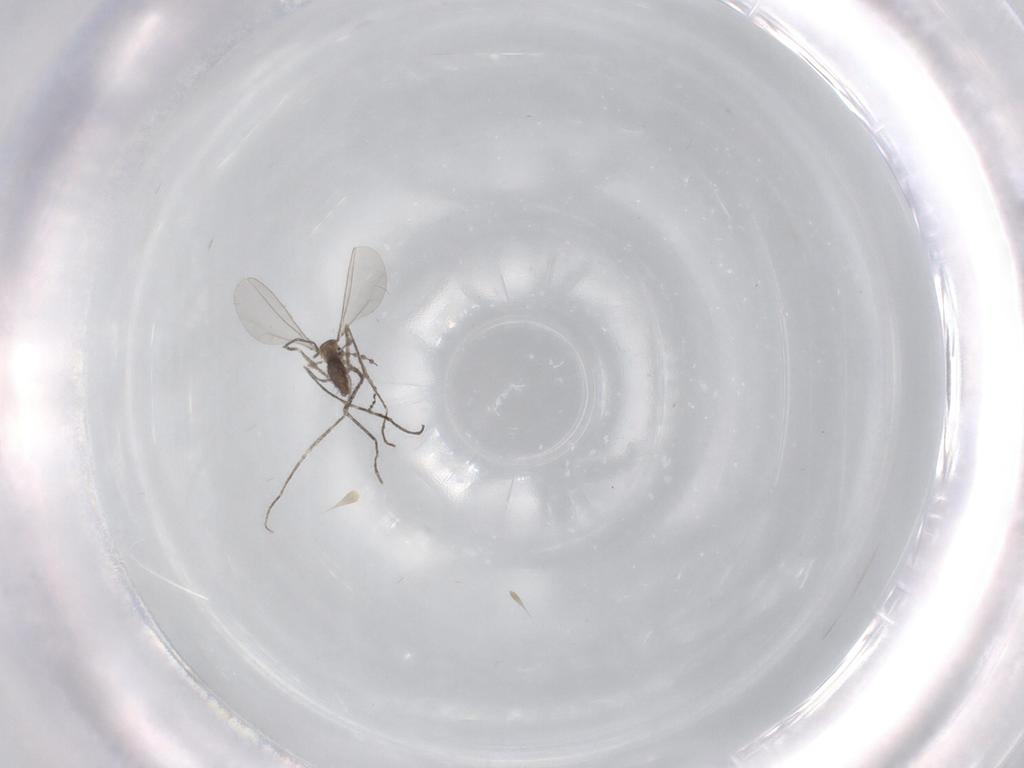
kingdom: Animalia
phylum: Arthropoda
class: Insecta
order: Diptera
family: Cecidomyiidae
